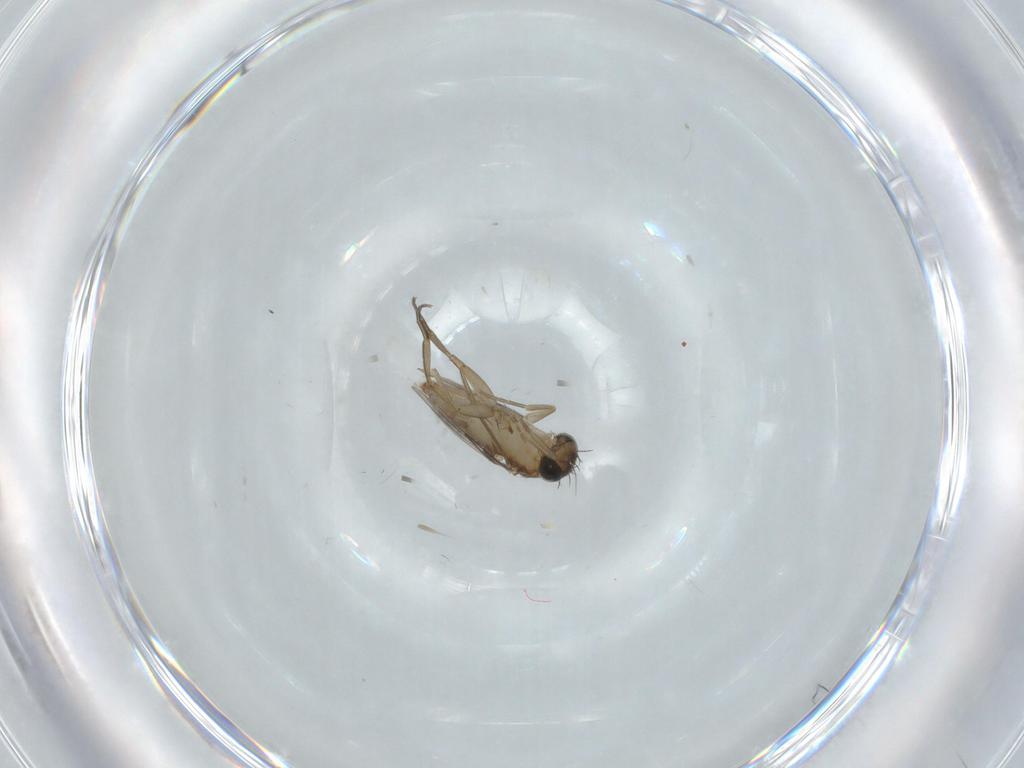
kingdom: Animalia
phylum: Arthropoda
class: Insecta
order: Diptera
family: Phoridae
